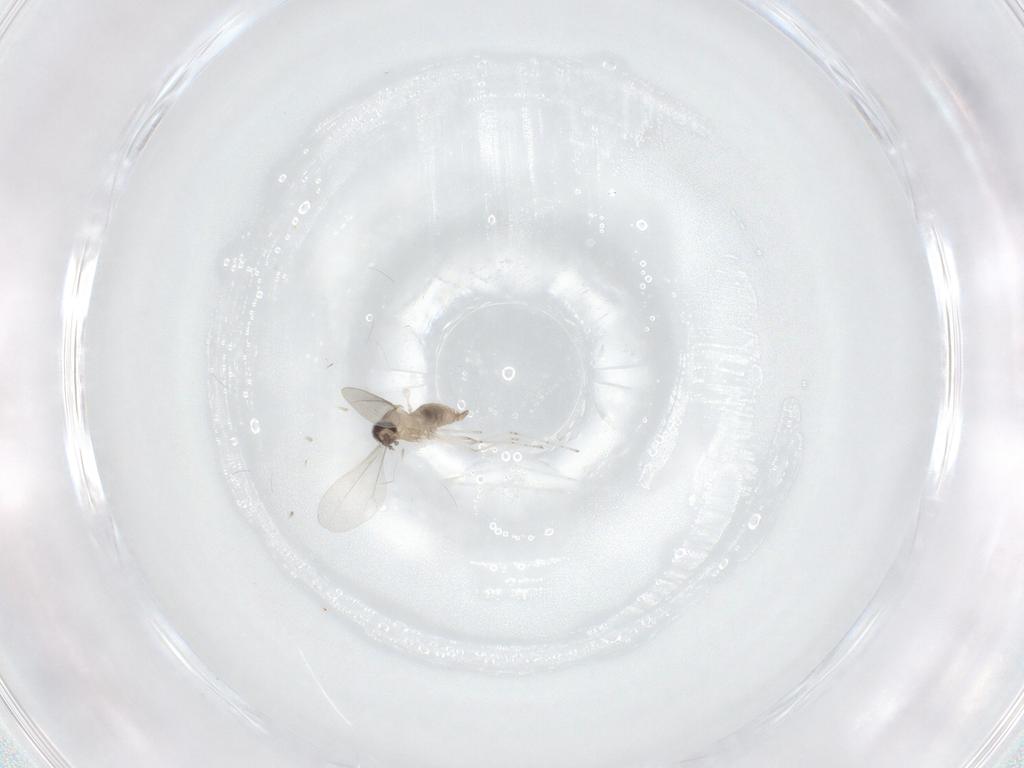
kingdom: Animalia
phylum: Arthropoda
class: Insecta
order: Diptera
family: Cecidomyiidae
